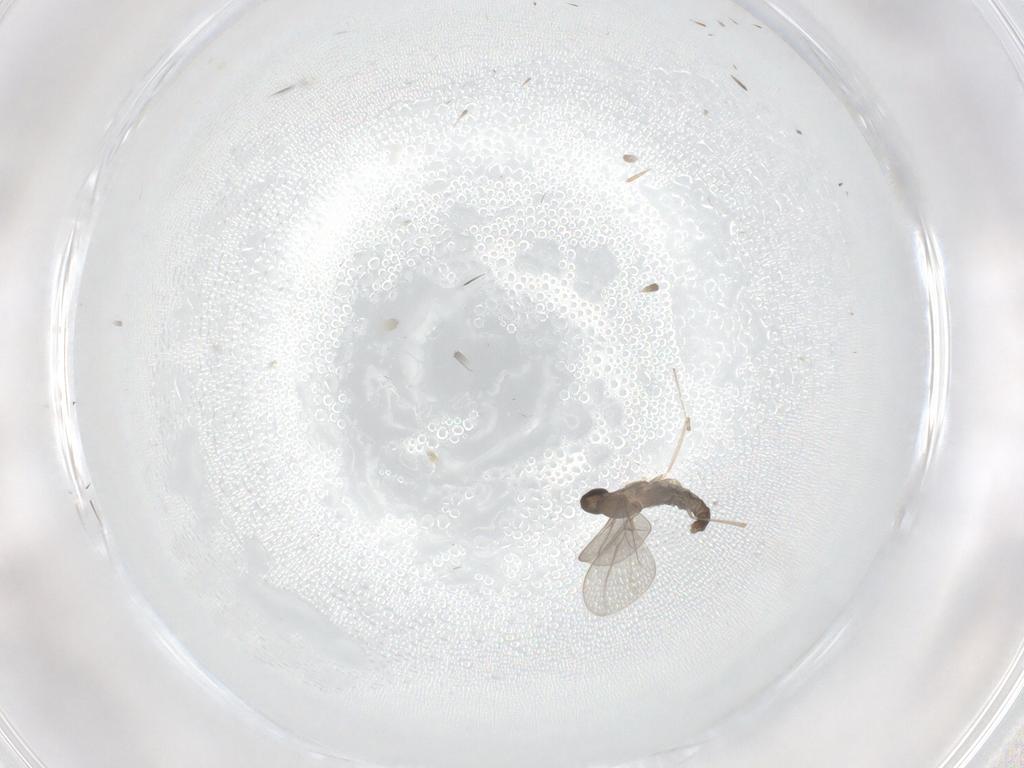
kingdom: Animalia
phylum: Arthropoda
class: Insecta
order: Diptera
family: Cecidomyiidae
